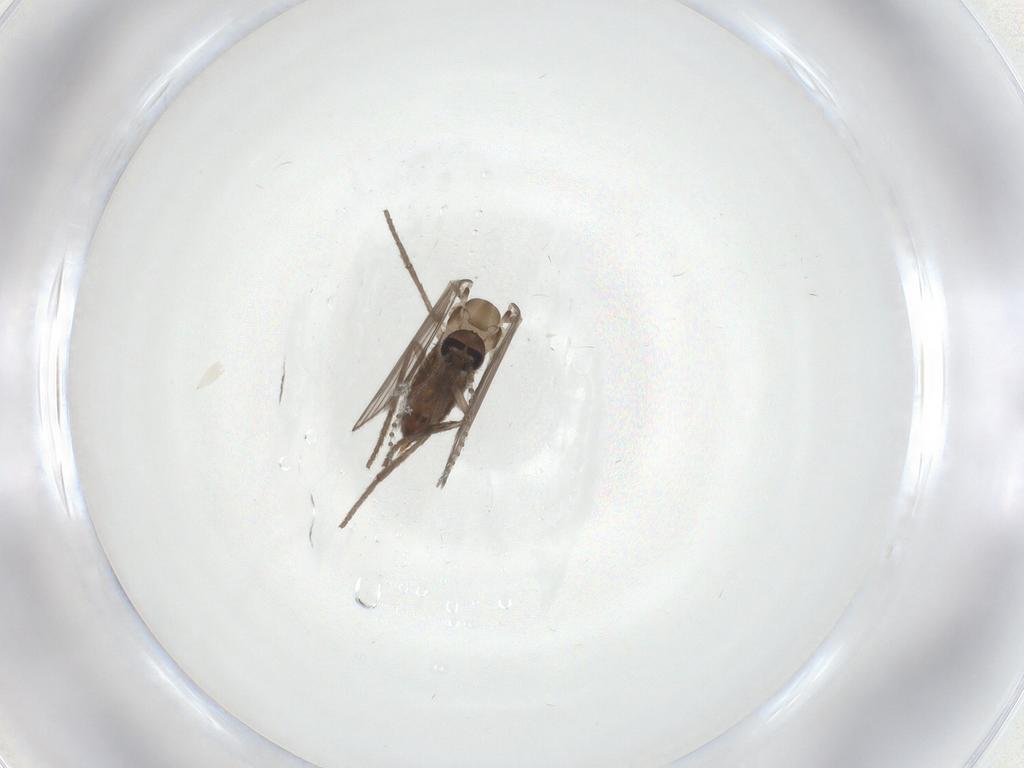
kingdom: Animalia
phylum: Arthropoda
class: Insecta
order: Diptera
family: Psychodidae
